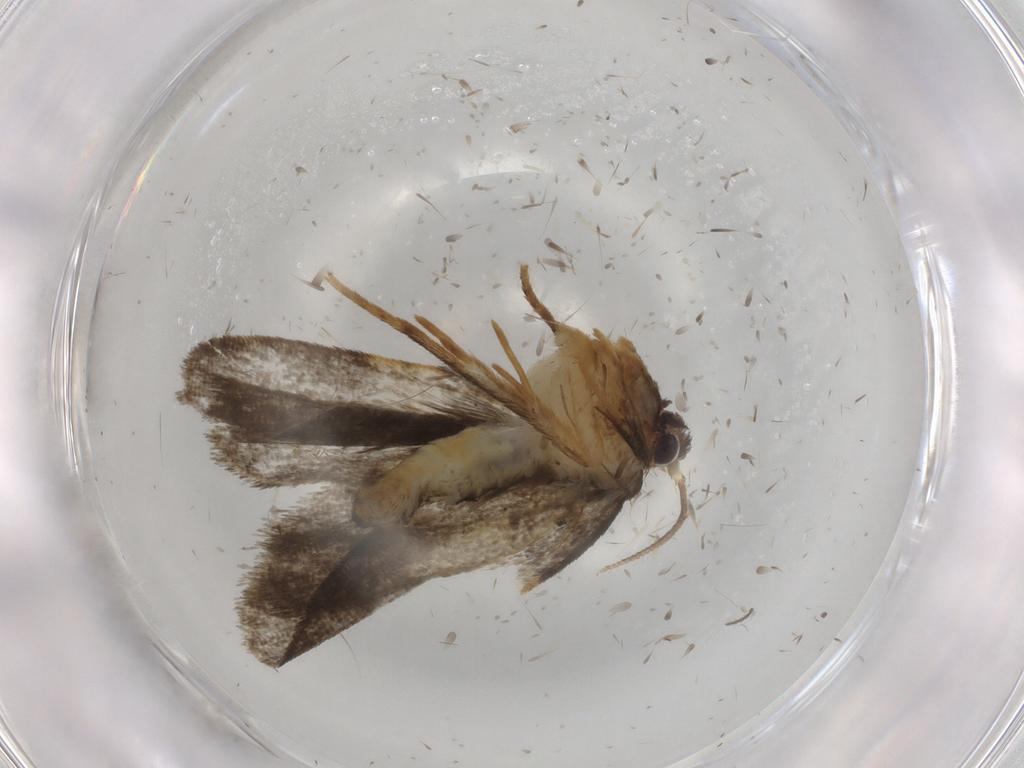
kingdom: Animalia
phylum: Arthropoda
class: Insecta
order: Lepidoptera
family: Psychidae
